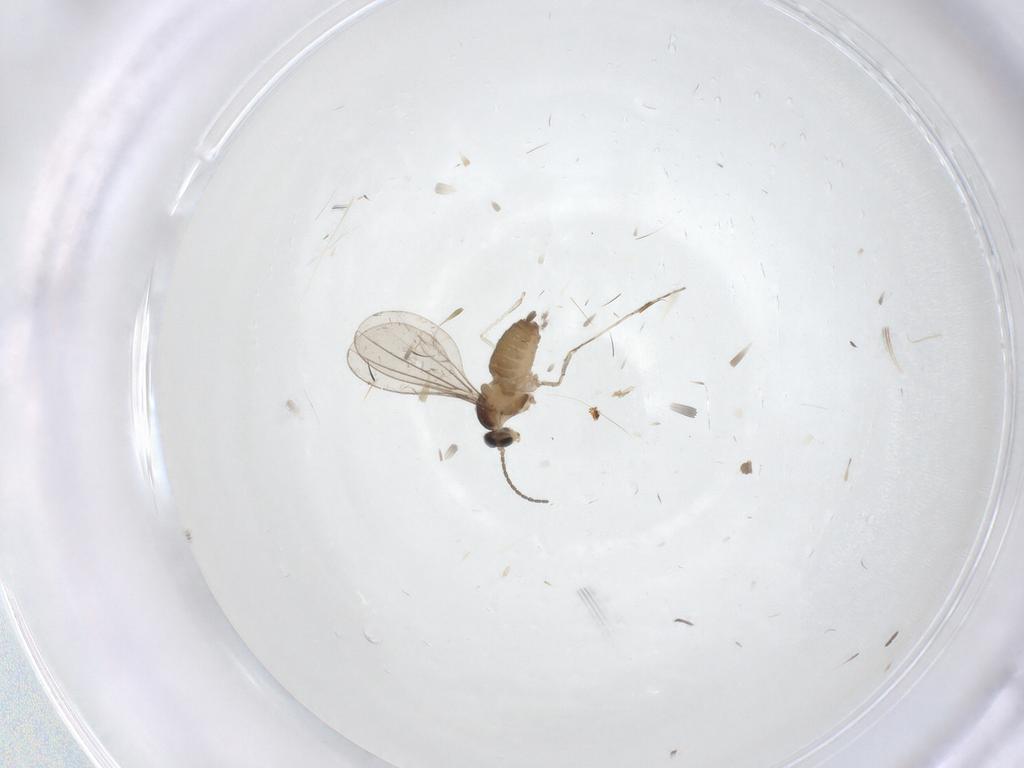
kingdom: Animalia
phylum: Arthropoda
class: Insecta
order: Diptera
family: Cecidomyiidae
